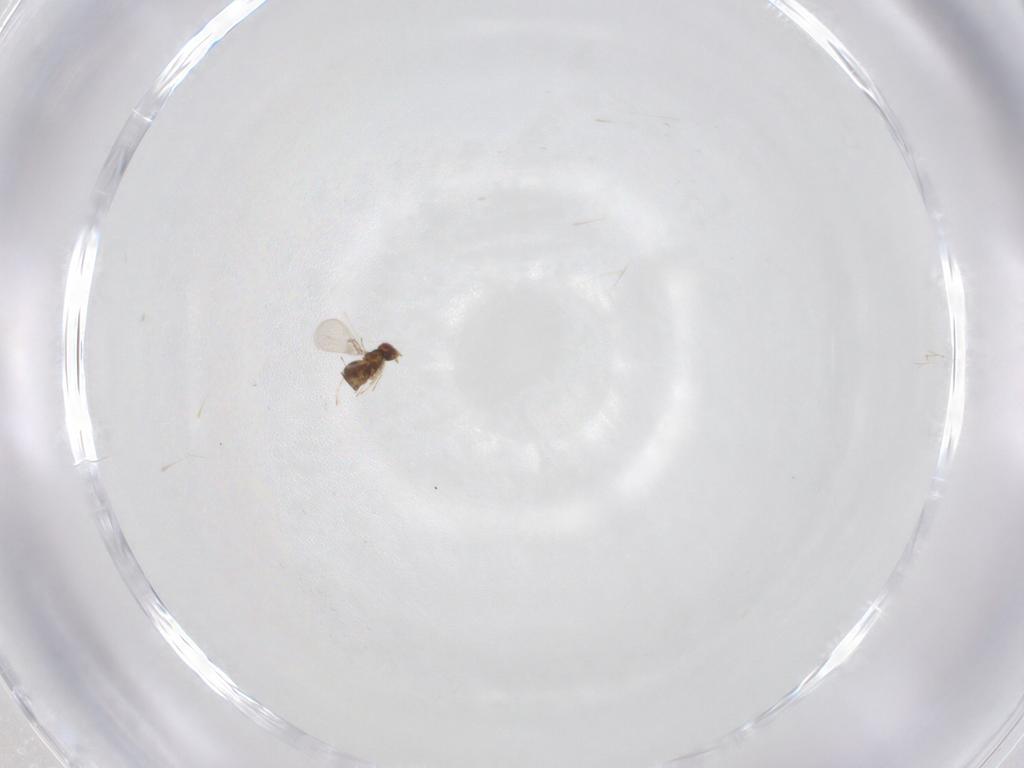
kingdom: Animalia
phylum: Arthropoda
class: Insecta
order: Hymenoptera
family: Trichogrammatidae
